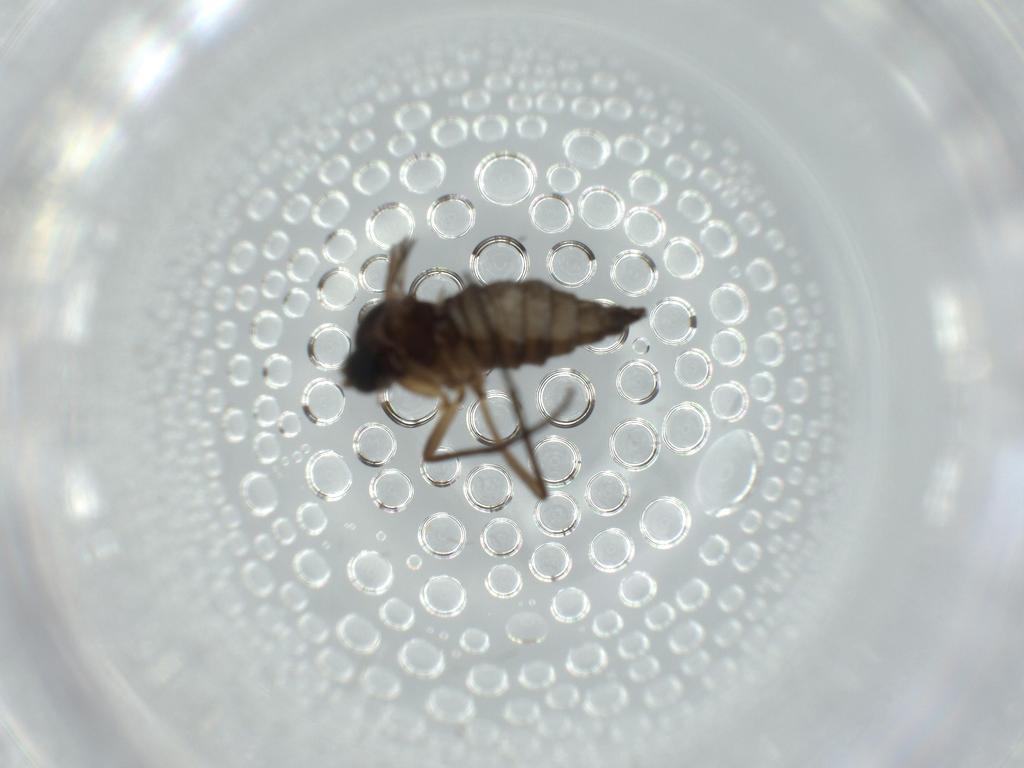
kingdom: Animalia
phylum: Arthropoda
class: Insecta
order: Diptera
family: Sciaridae
